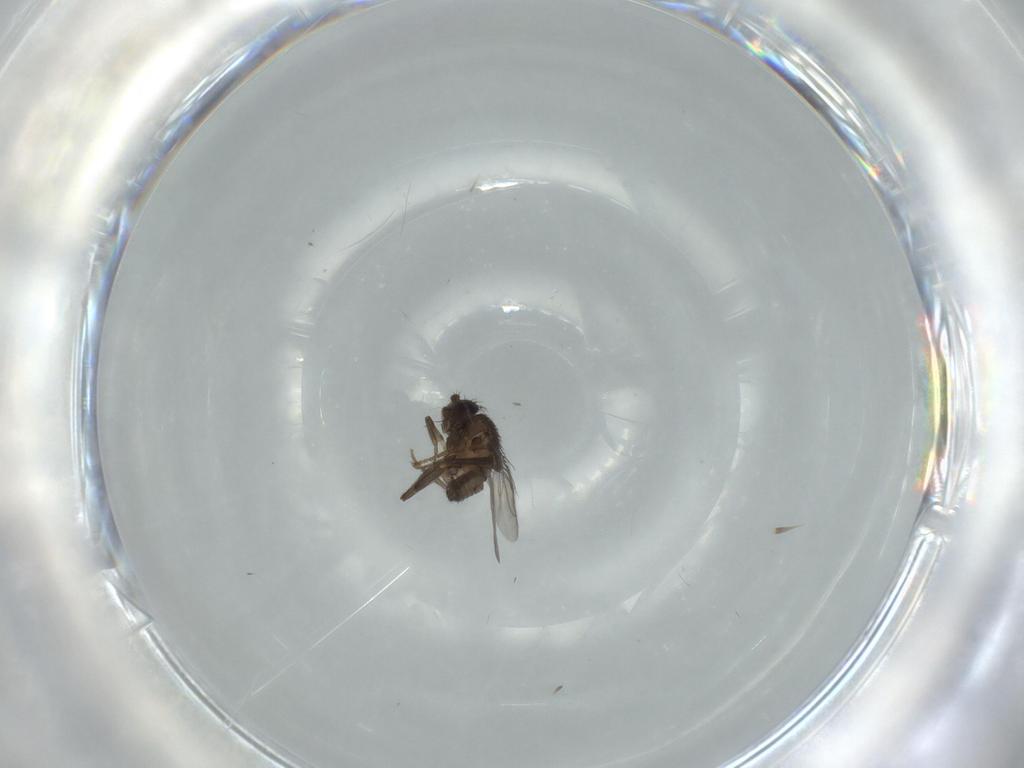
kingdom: Animalia
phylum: Arthropoda
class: Insecta
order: Diptera
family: Sphaeroceridae
